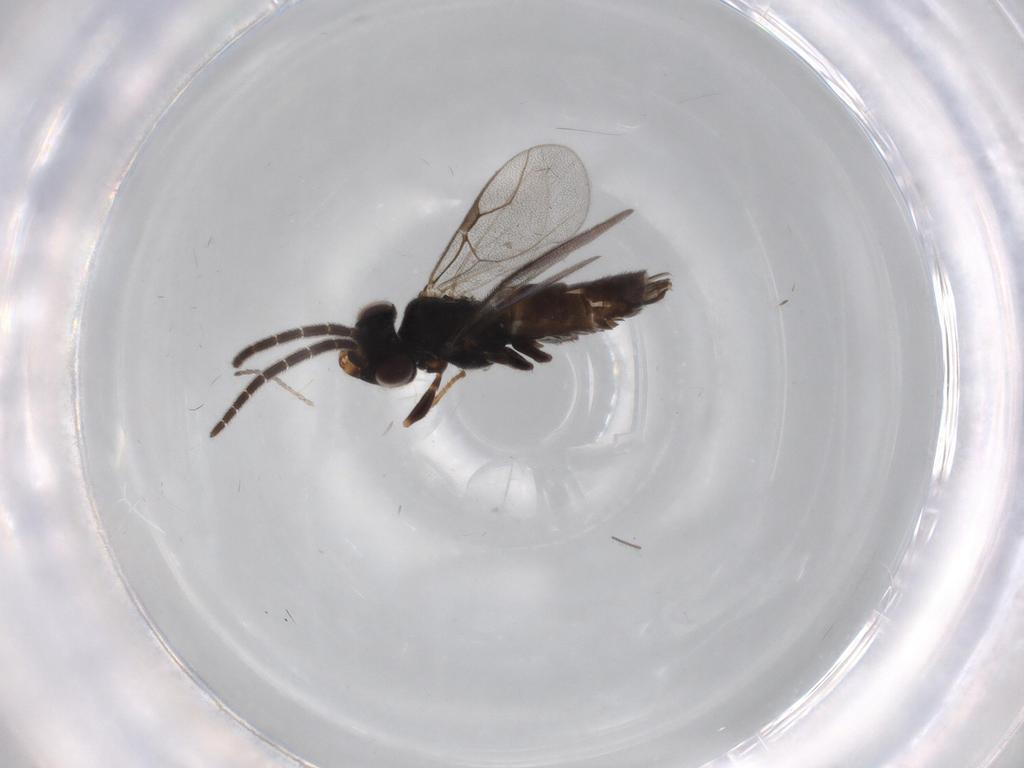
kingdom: Animalia
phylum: Arthropoda
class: Insecta
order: Hymenoptera
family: Dryinidae
